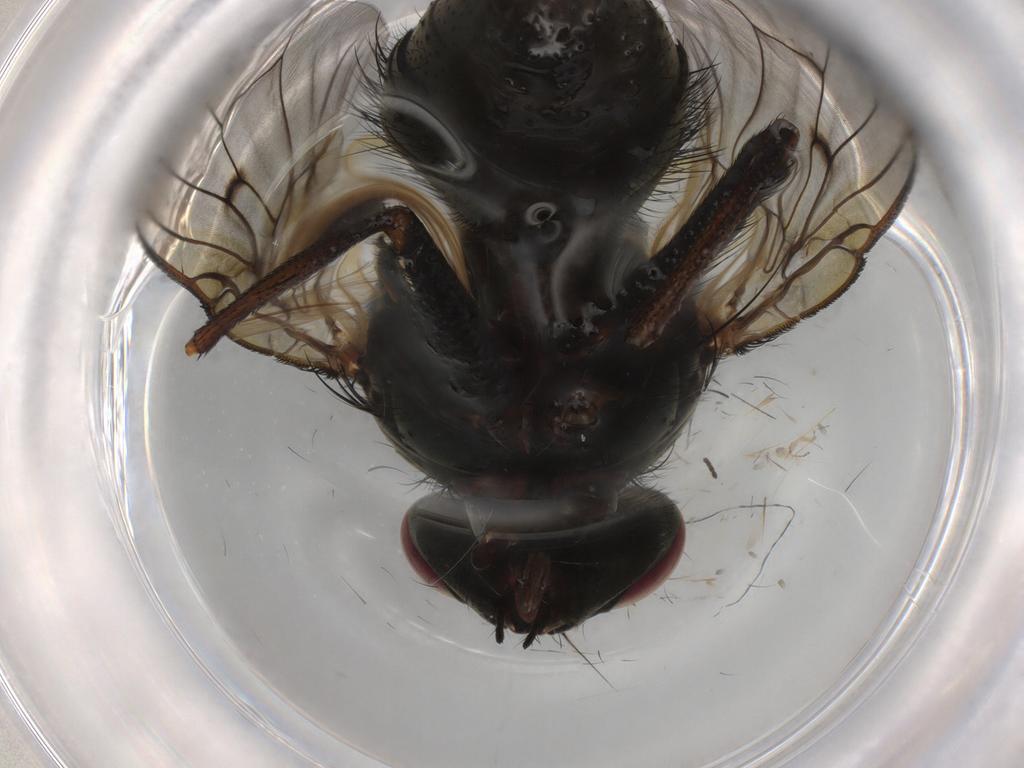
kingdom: Animalia
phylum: Arthropoda
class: Insecta
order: Diptera
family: Muscidae
